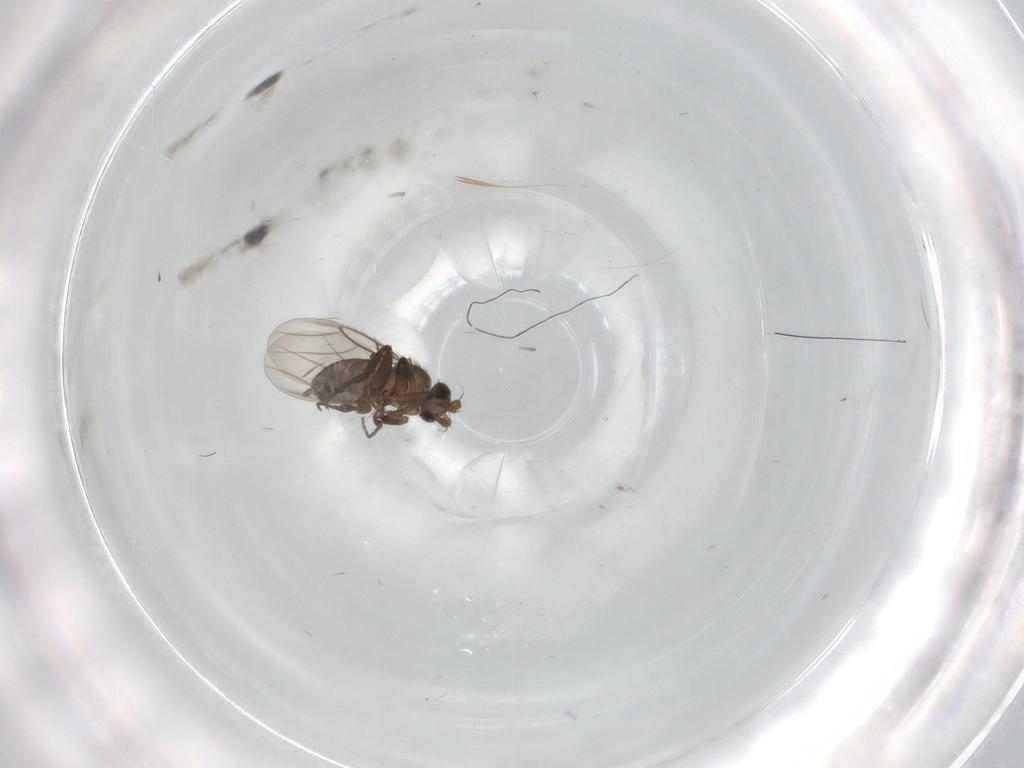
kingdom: Animalia
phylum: Arthropoda
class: Insecta
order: Diptera
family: Phoridae
